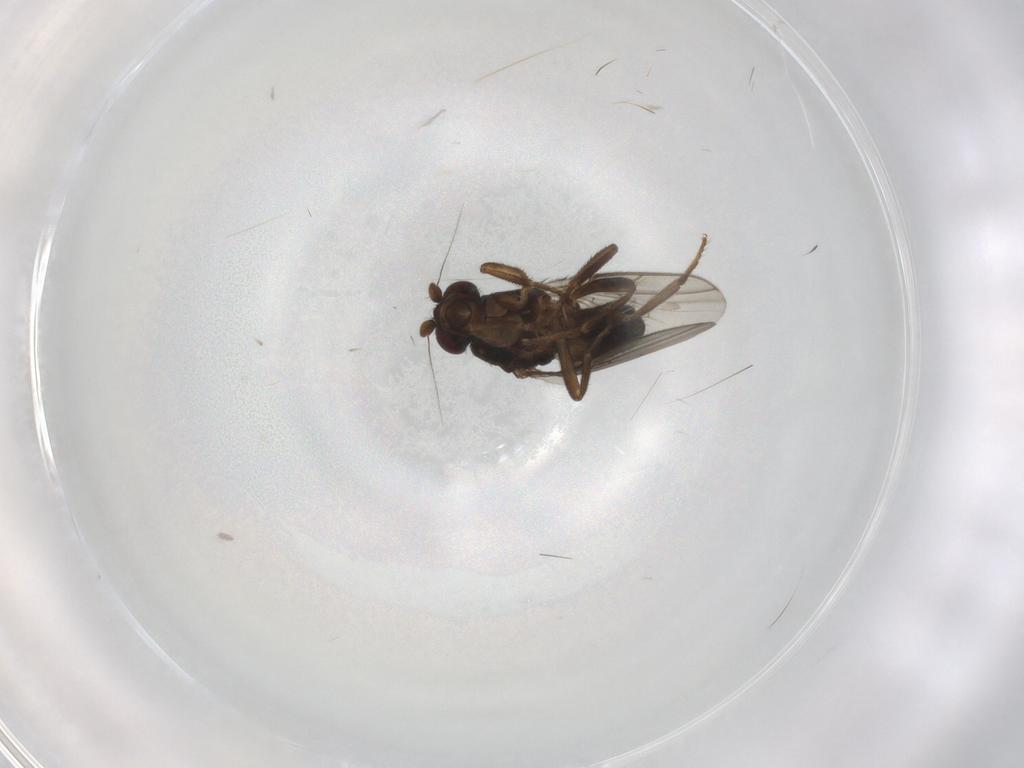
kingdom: Animalia
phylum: Arthropoda
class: Insecta
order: Diptera
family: Sphaeroceridae
